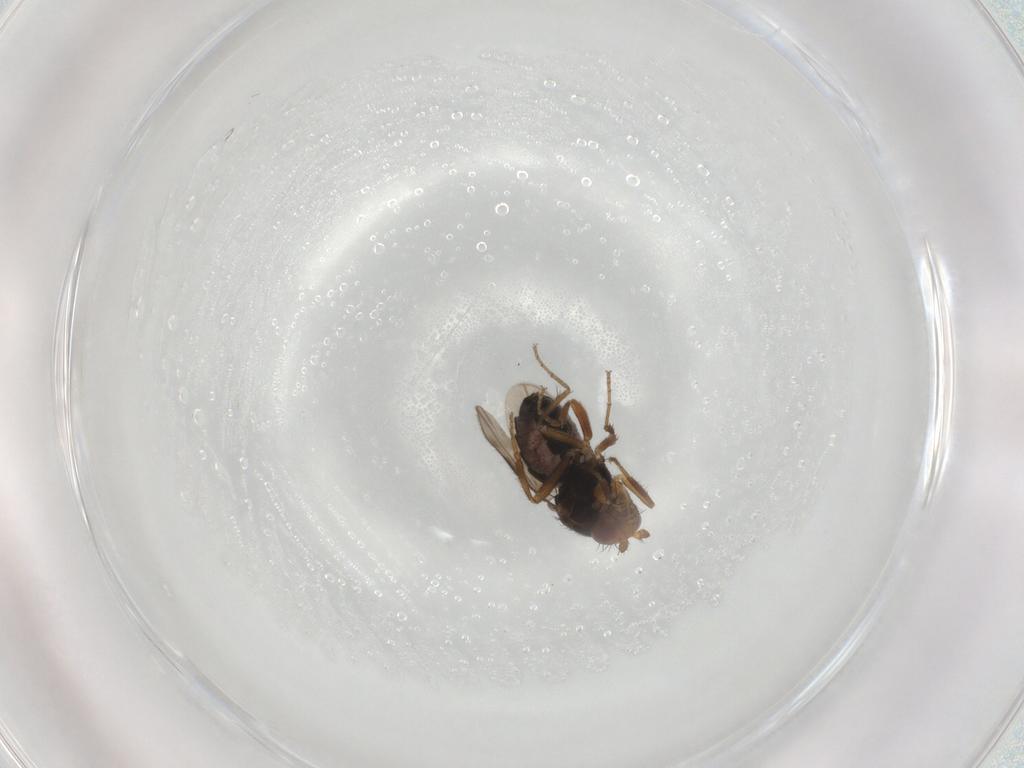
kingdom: Animalia
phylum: Arthropoda
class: Insecta
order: Diptera
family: Sphaeroceridae
